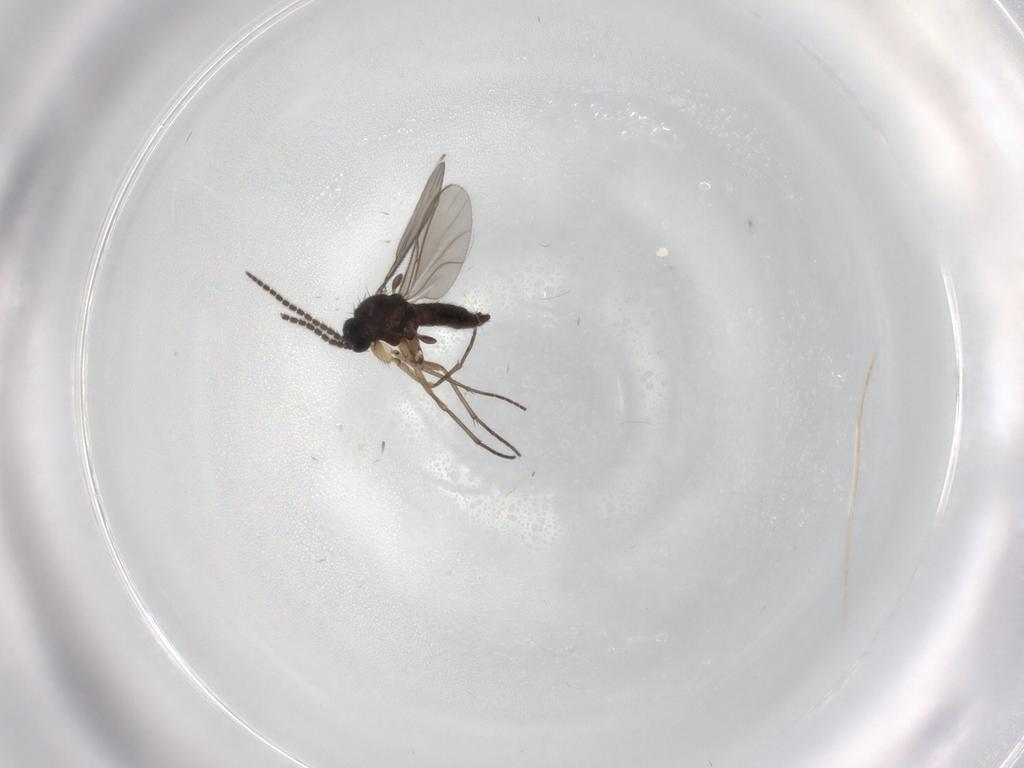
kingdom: Animalia
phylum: Arthropoda
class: Insecta
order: Diptera
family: Sciaridae
